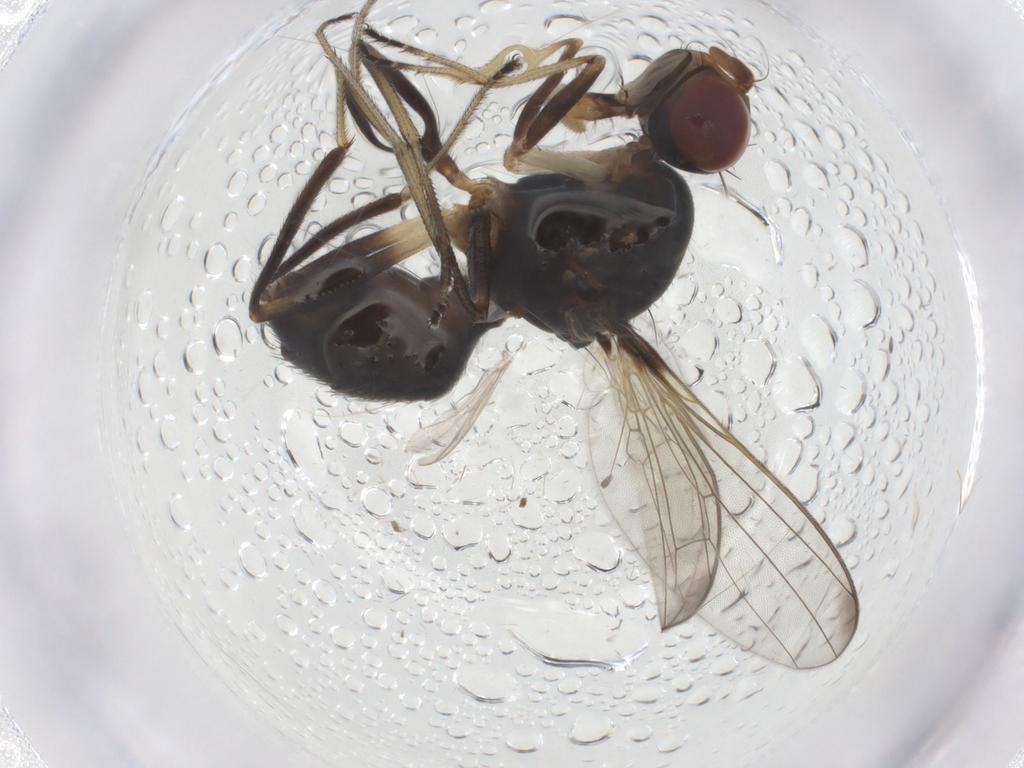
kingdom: Animalia
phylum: Arthropoda
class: Insecta
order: Diptera
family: Sepsidae
